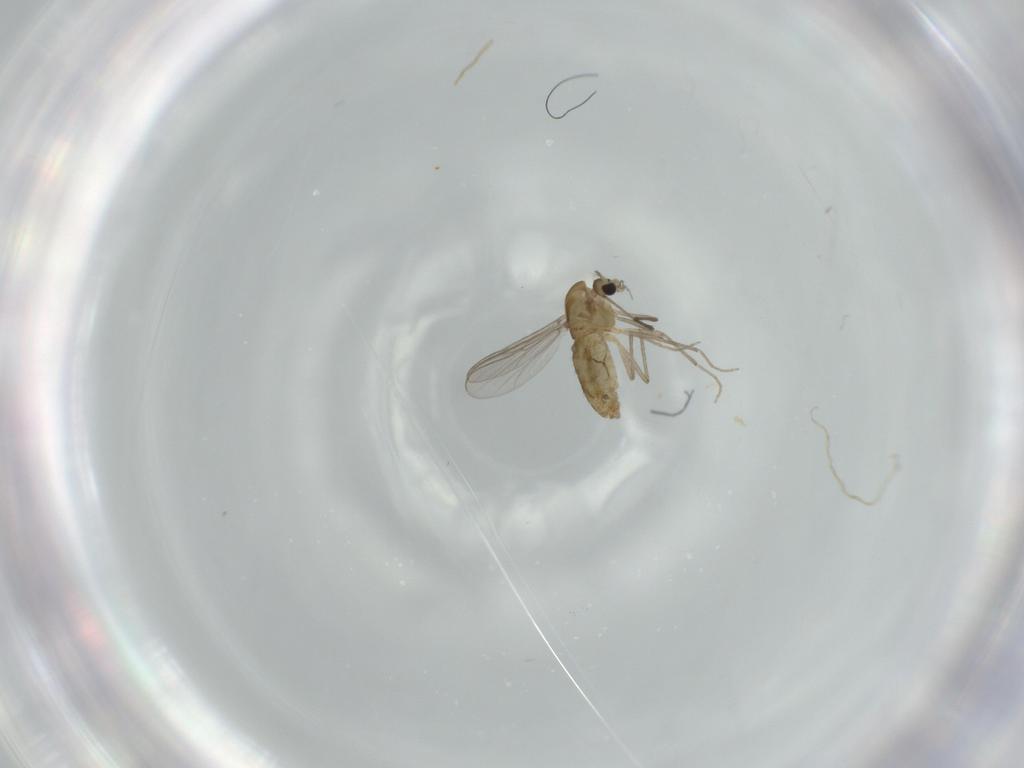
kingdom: Animalia
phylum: Arthropoda
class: Insecta
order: Diptera
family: Chironomidae
